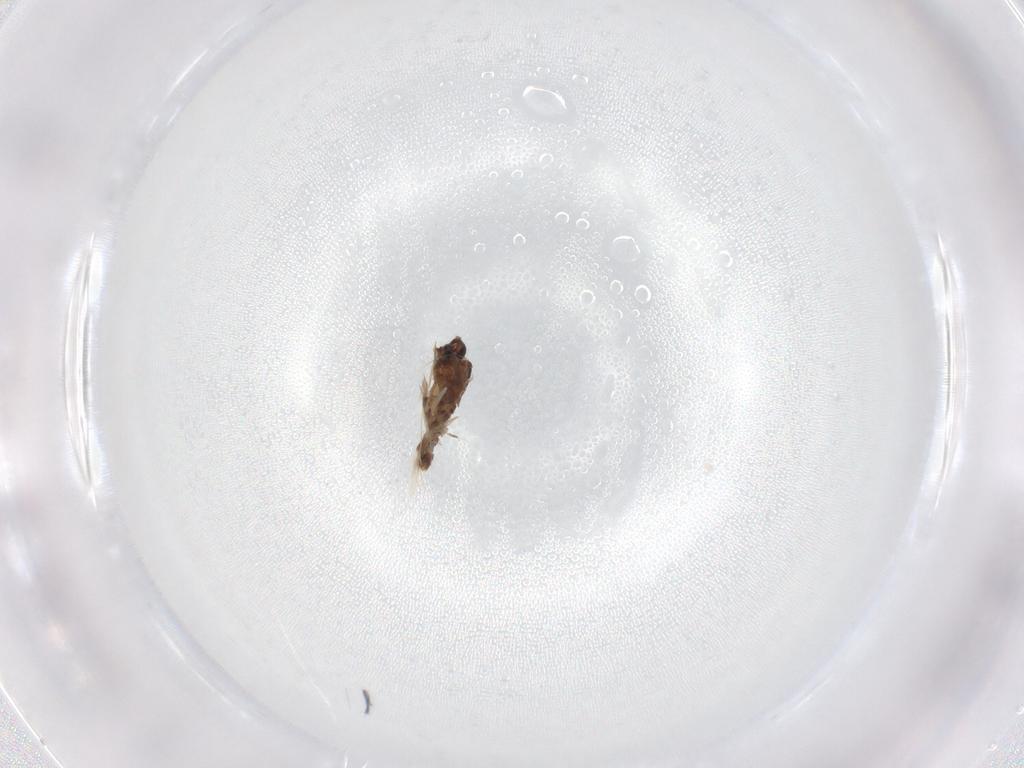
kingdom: Animalia
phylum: Arthropoda
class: Insecta
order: Diptera
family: Ceratopogonidae
